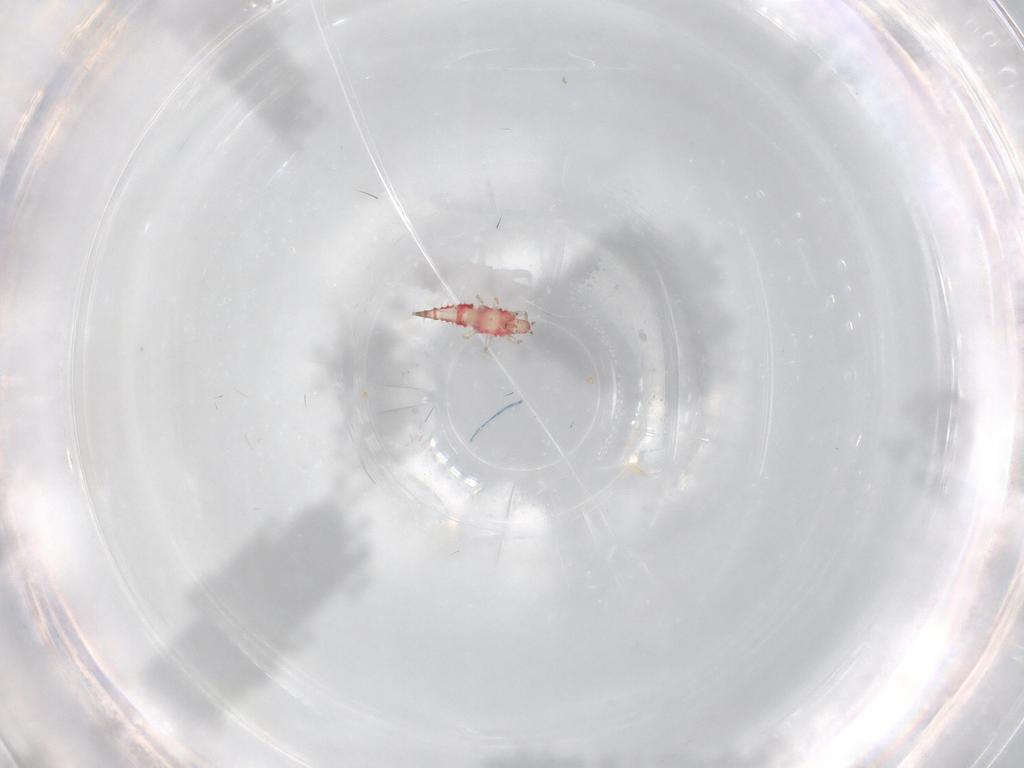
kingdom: Animalia
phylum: Arthropoda
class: Insecta
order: Thysanoptera
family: Phlaeothripidae
